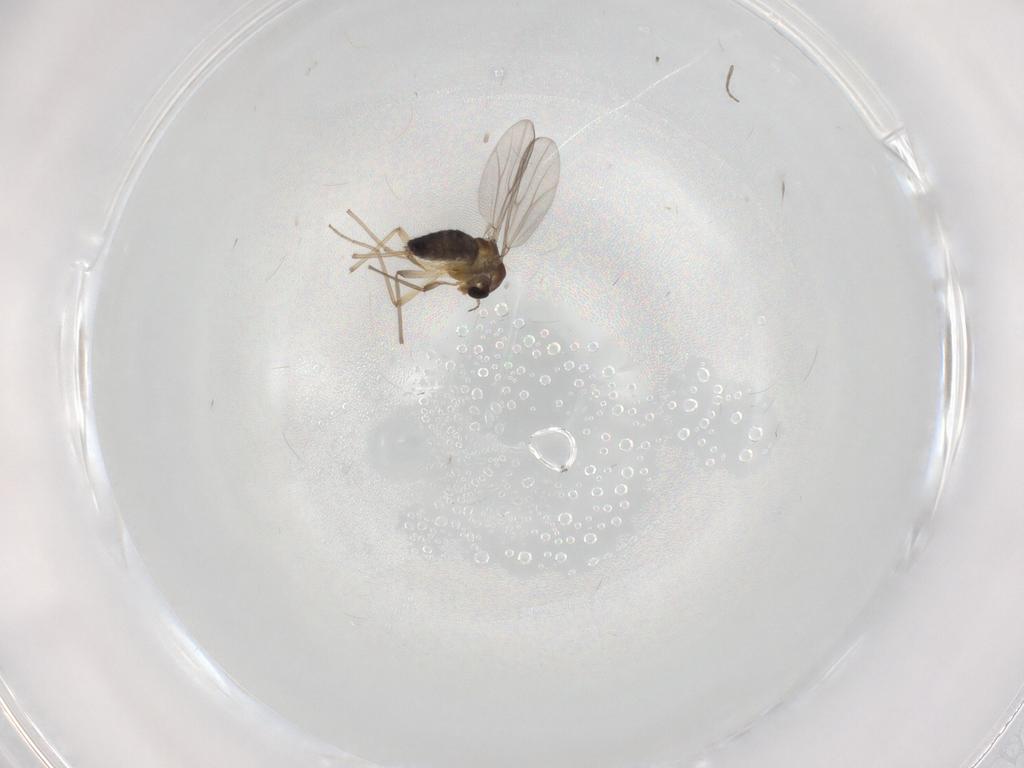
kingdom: Animalia
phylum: Arthropoda
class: Insecta
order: Diptera
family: Chironomidae
